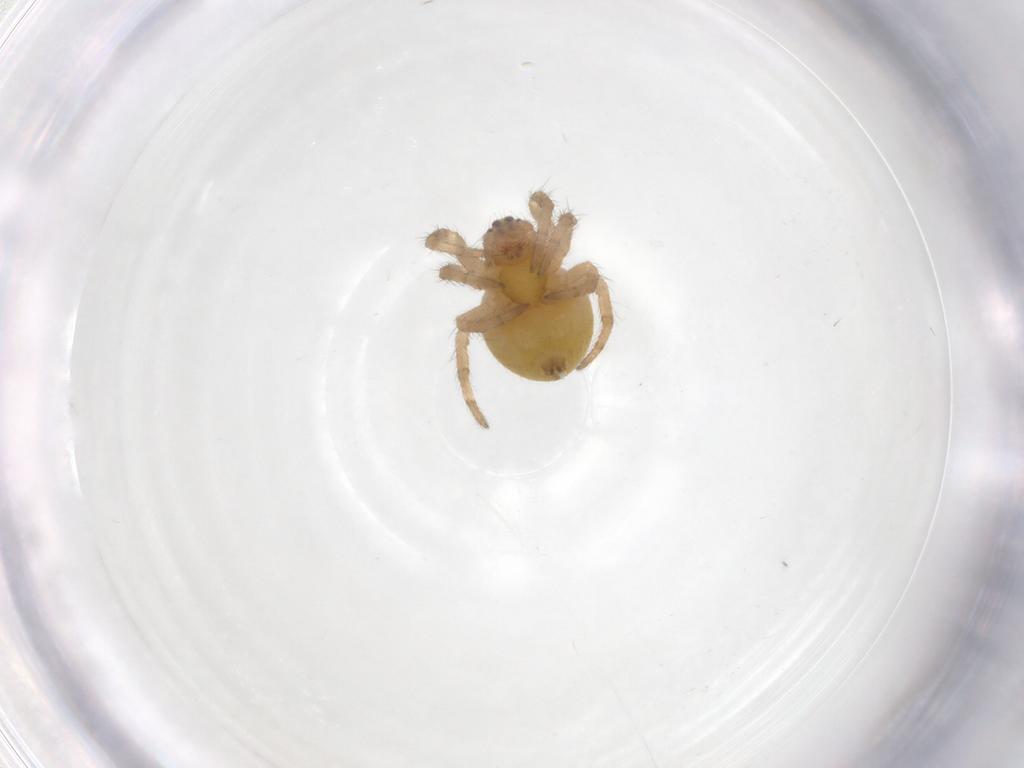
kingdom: Animalia
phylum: Arthropoda
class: Arachnida
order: Araneae
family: Araneidae
